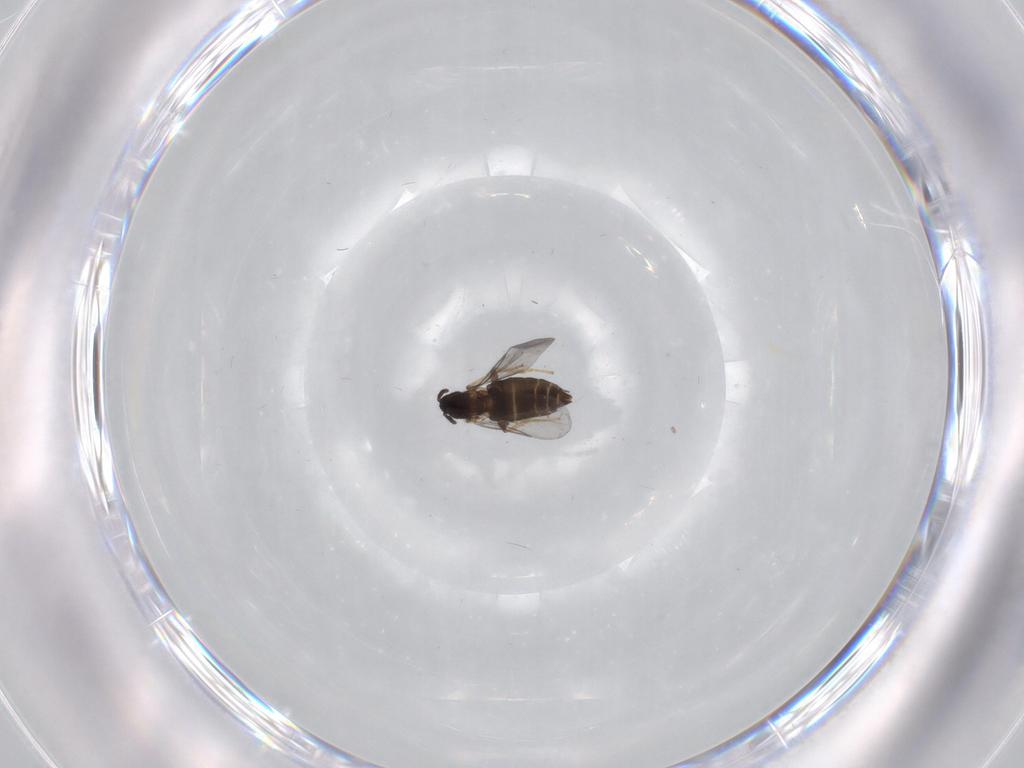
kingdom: Animalia
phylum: Arthropoda
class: Insecta
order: Diptera
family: Scatopsidae
